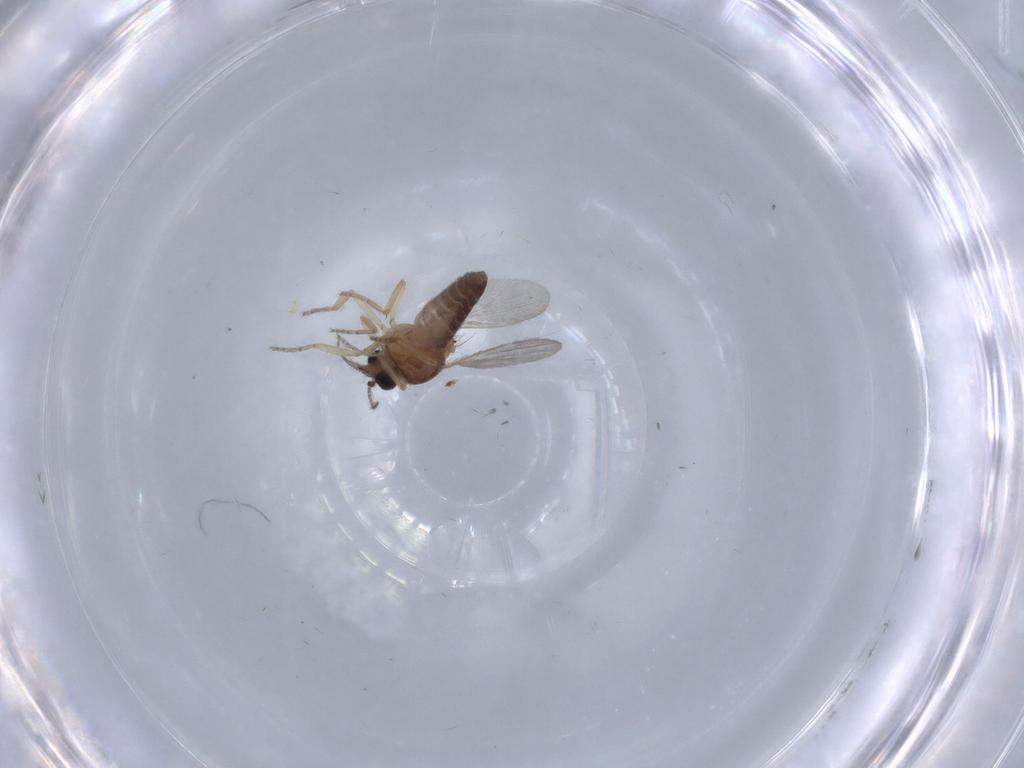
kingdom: Animalia
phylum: Arthropoda
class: Insecta
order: Diptera
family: Ceratopogonidae
